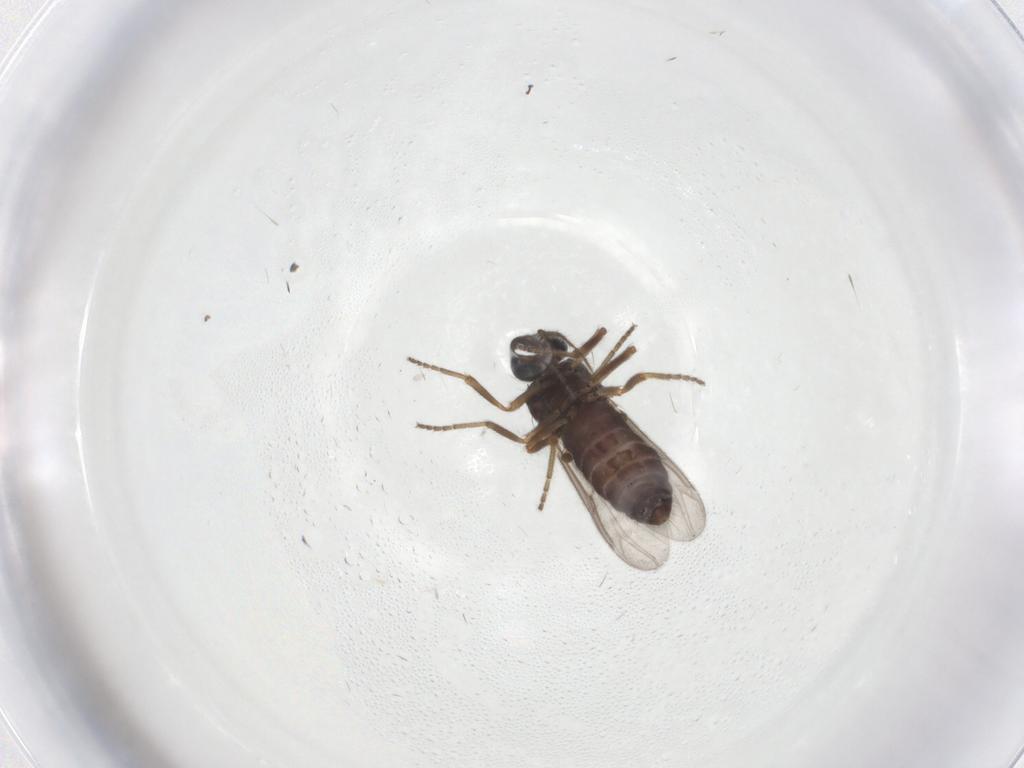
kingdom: Animalia
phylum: Arthropoda
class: Insecta
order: Diptera
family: Sciaridae
